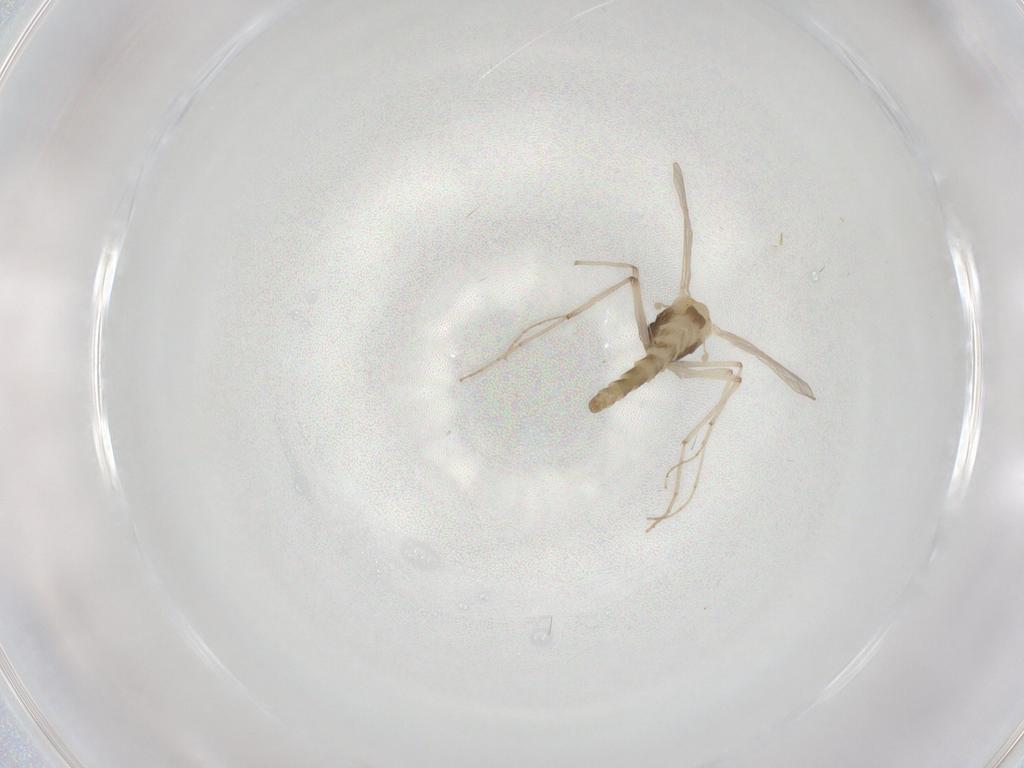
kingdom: Animalia
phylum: Arthropoda
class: Insecta
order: Diptera
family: Chironomidae
